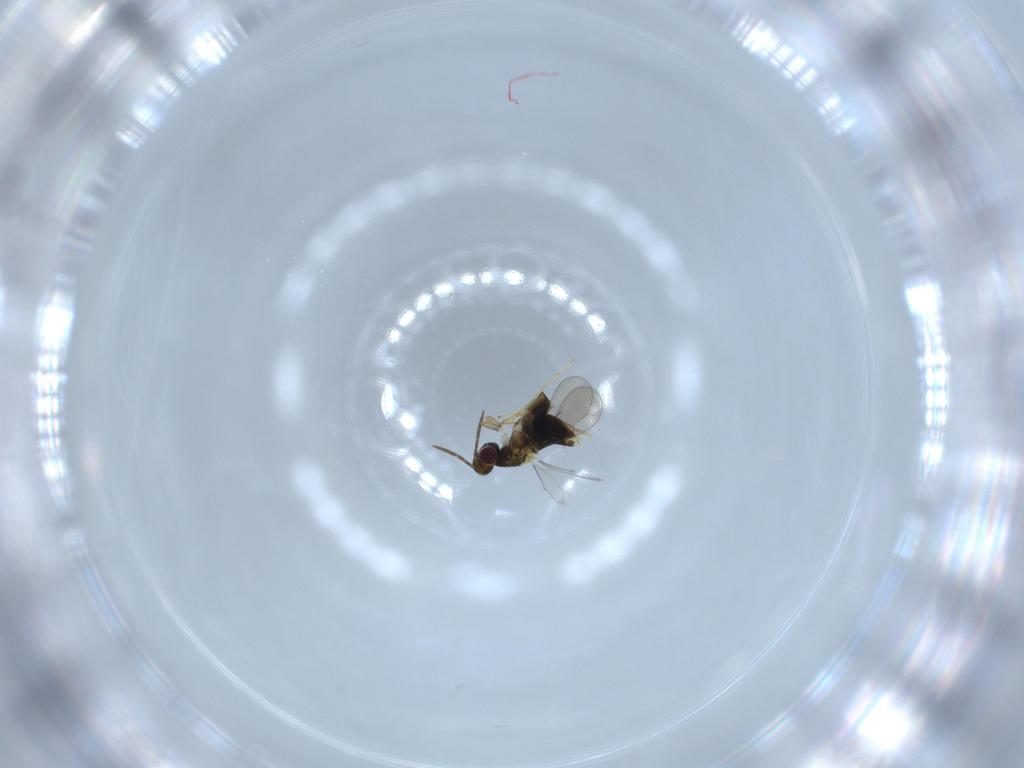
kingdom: Animalia
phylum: Arthropoda
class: Insecta
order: Hymenoptera
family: Aphelinidae
